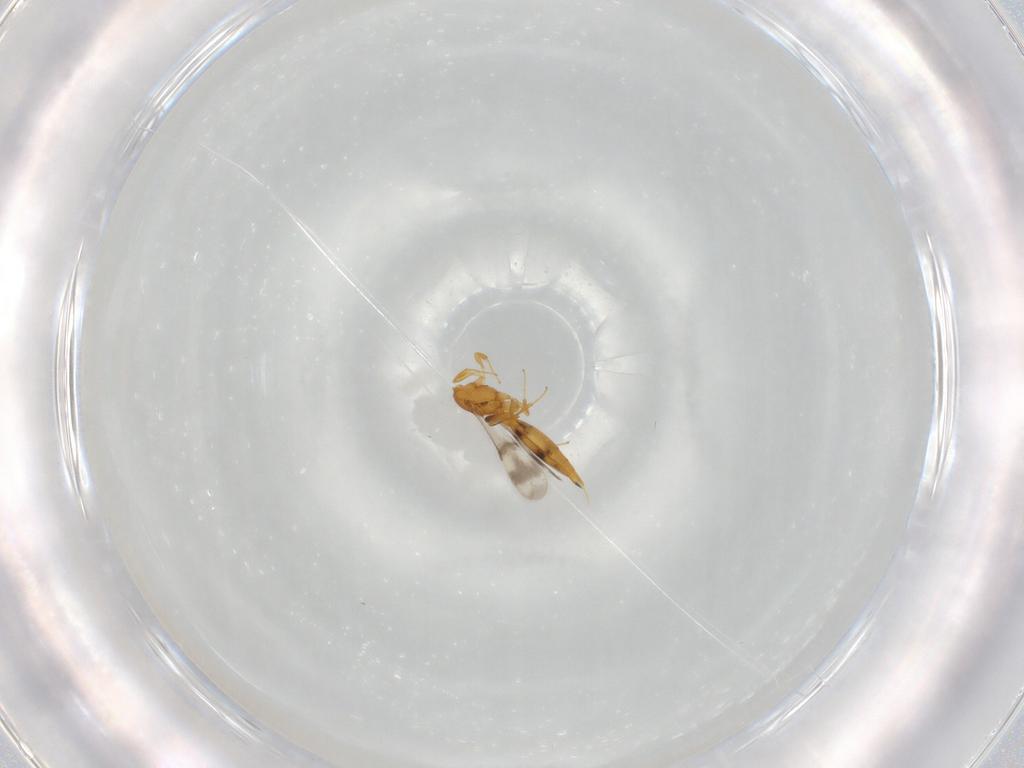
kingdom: Animalia
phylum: Arthropoda
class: Insecta
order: Hymenoptera
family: Scelionidae
